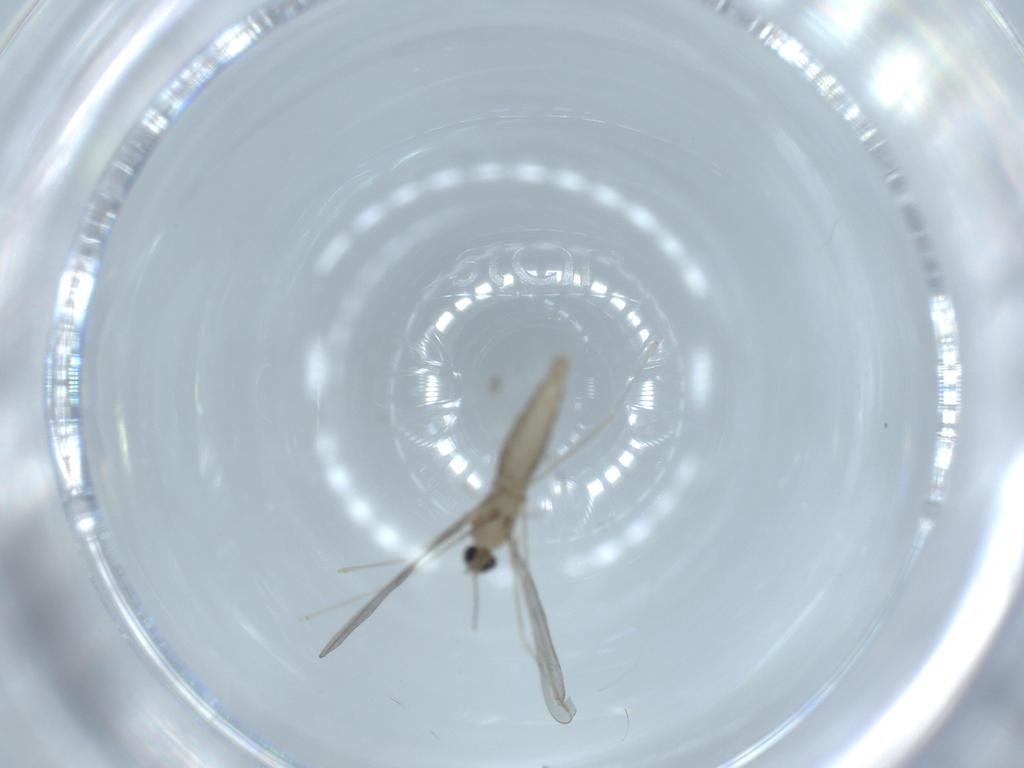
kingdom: Animalia
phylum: Arthropoda
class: Insecta
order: Diptera
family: Cecidomyiidae
